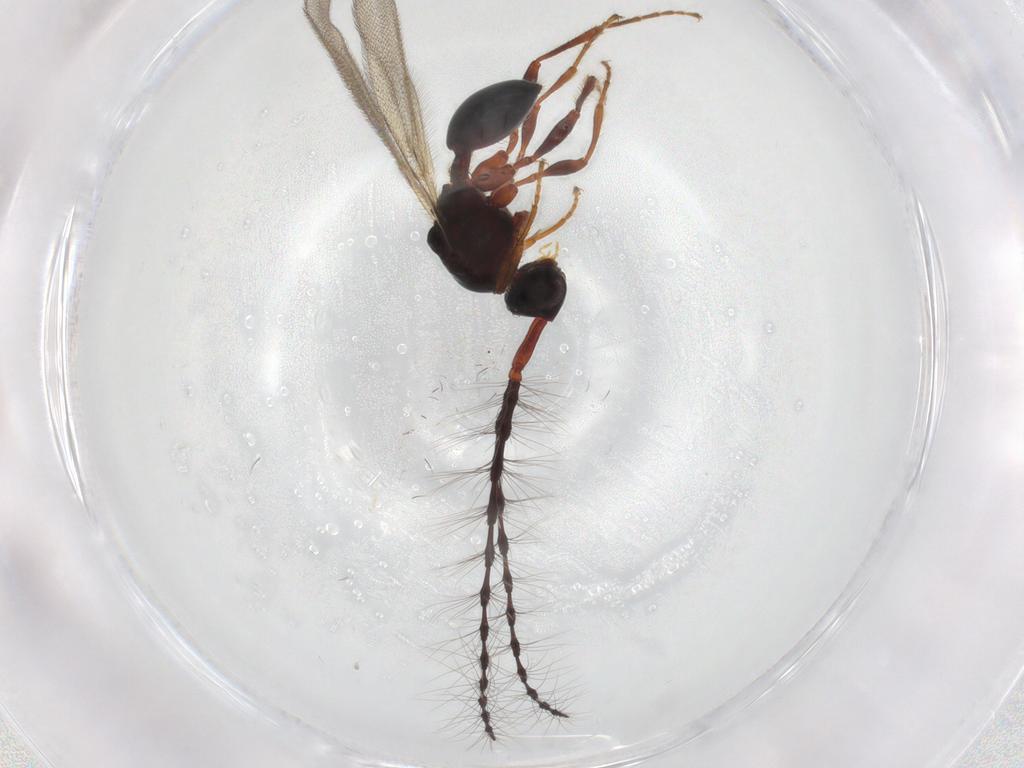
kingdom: Animalia
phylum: Arthropoda
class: Insecta
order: Hymenoptera
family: Diapriidae
